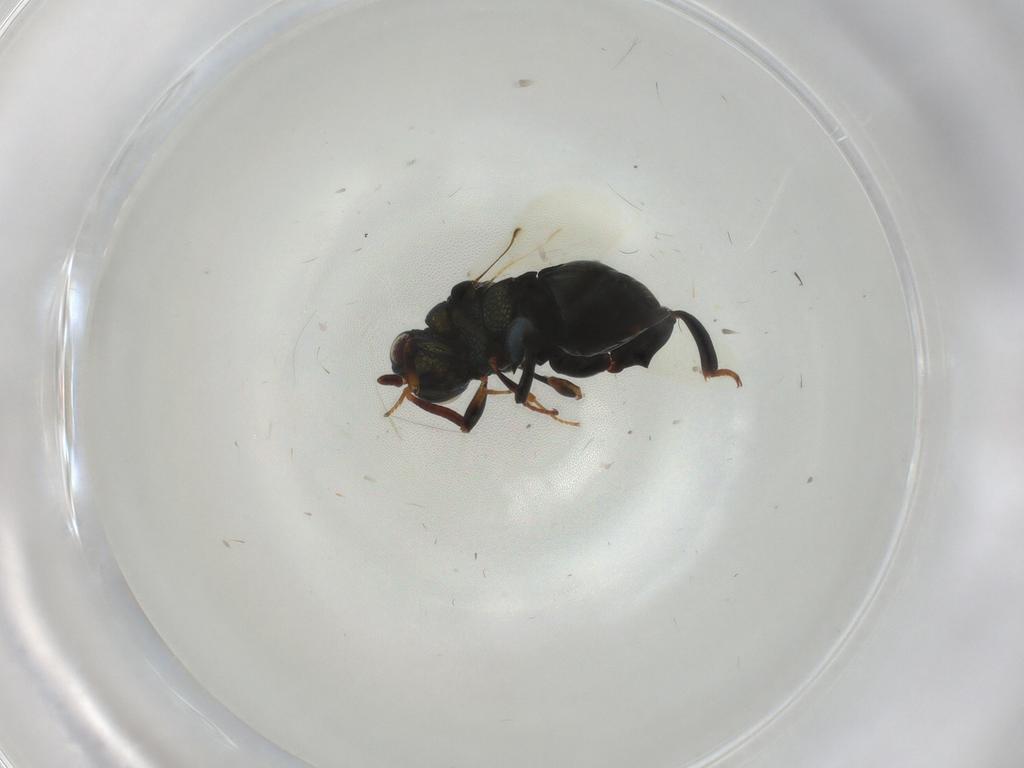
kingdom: Animalia
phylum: Arthropoda
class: Insecta
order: Hymenoptera
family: Chalcididae
